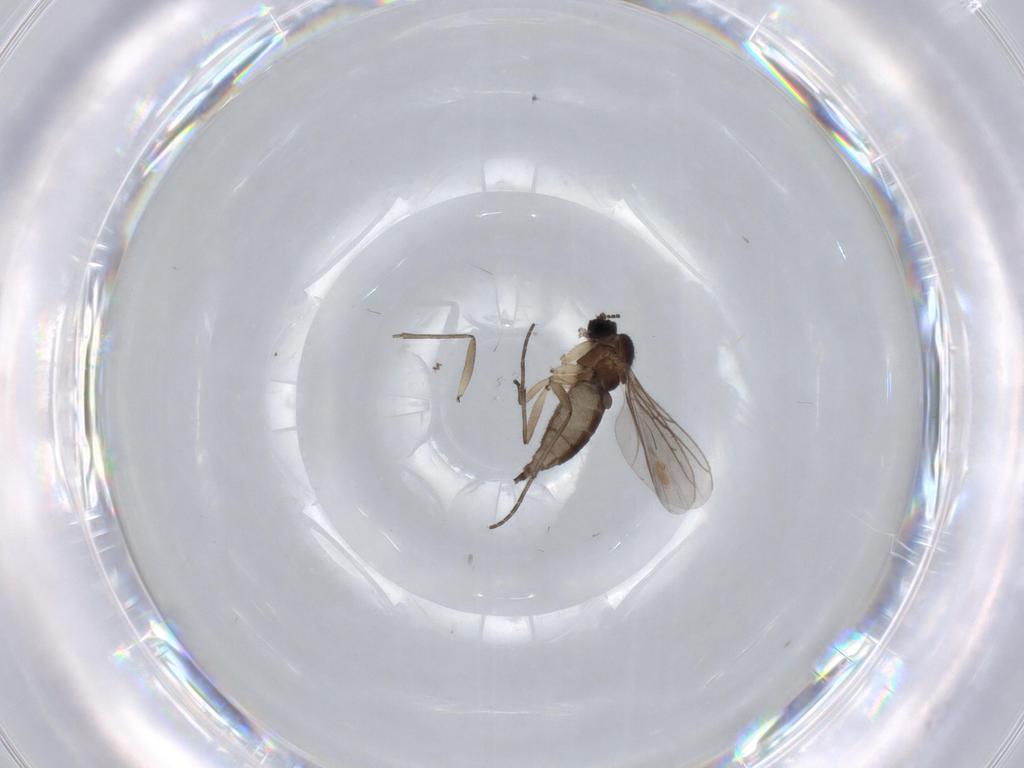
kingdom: Animalia
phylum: Arthropoda
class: Insecta
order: Diptera
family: Sciaridae
